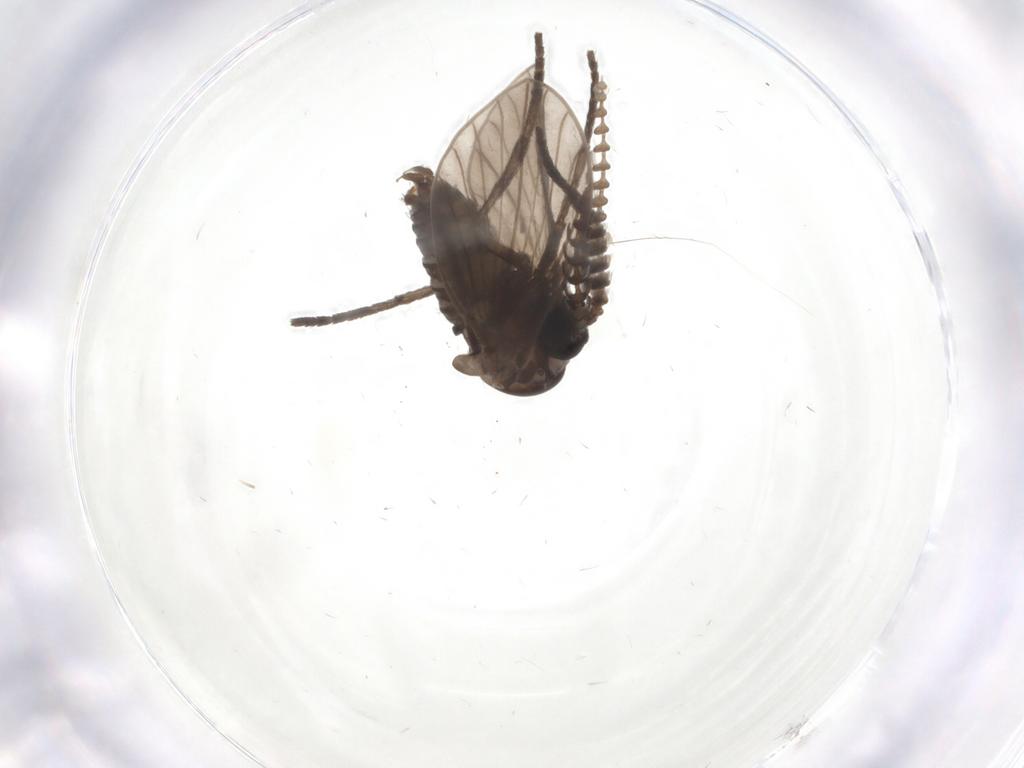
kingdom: Animalia
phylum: Arthropoda
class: Insecta
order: Diptera
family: Psychodidae
